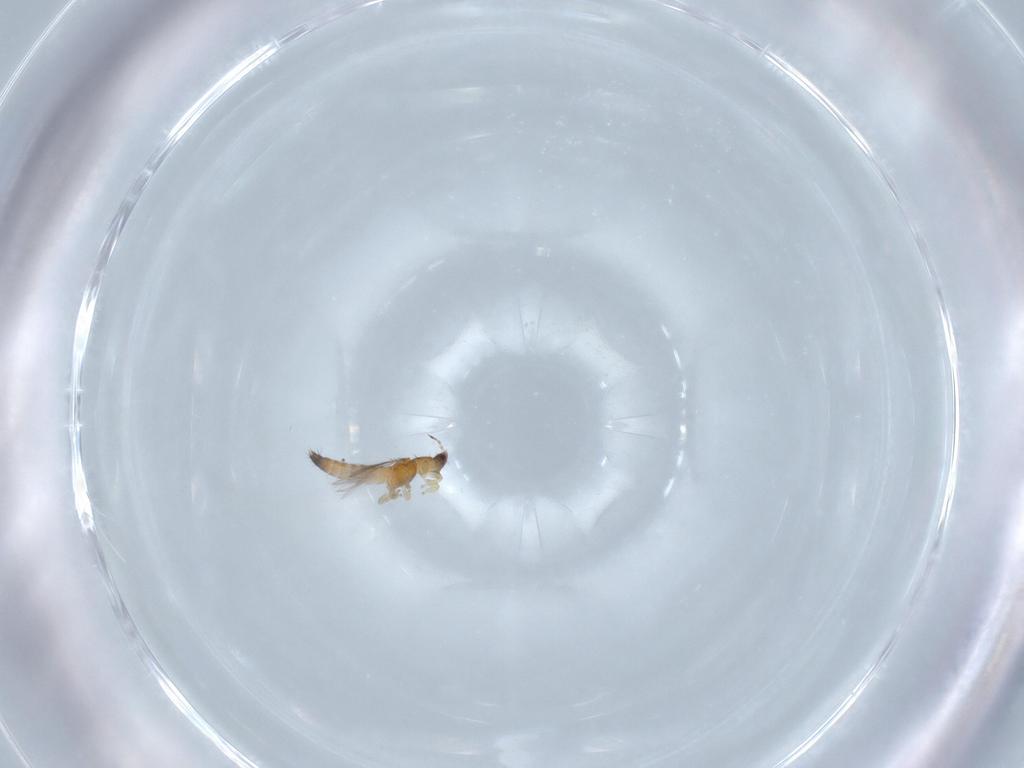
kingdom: Animalia
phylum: Arthropoda
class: Insecta
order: Thysanoptera
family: Thripidae
